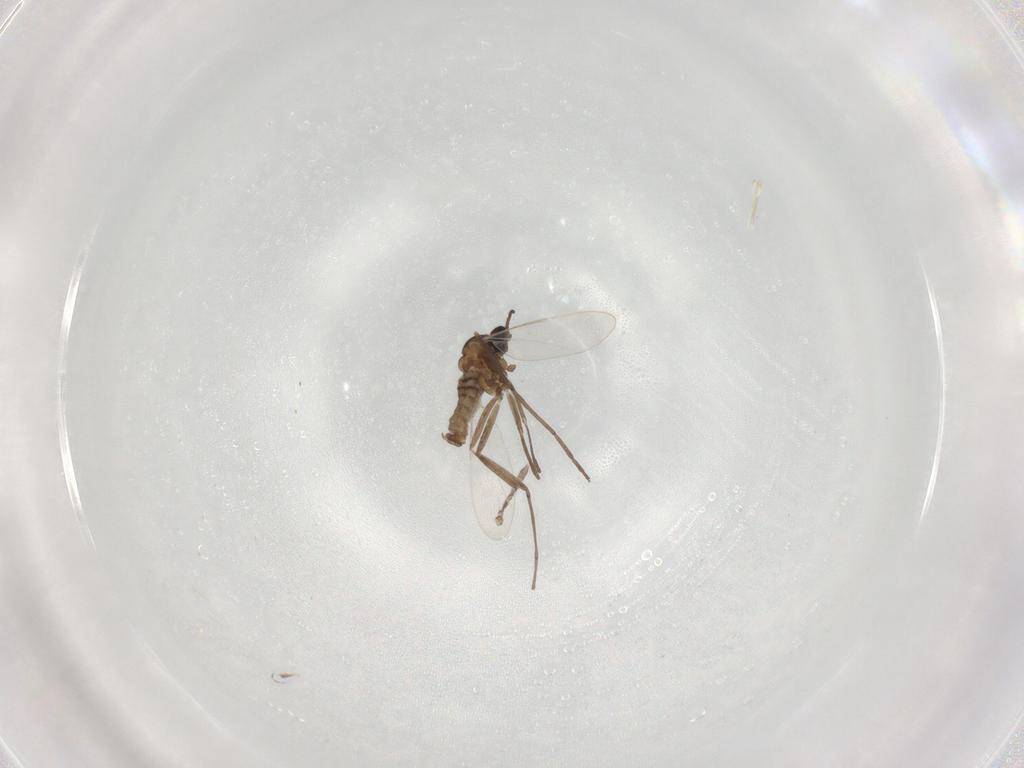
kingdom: Animalia
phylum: Arthropoda
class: Insecta
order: Diptera
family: Cecidomyiidae
